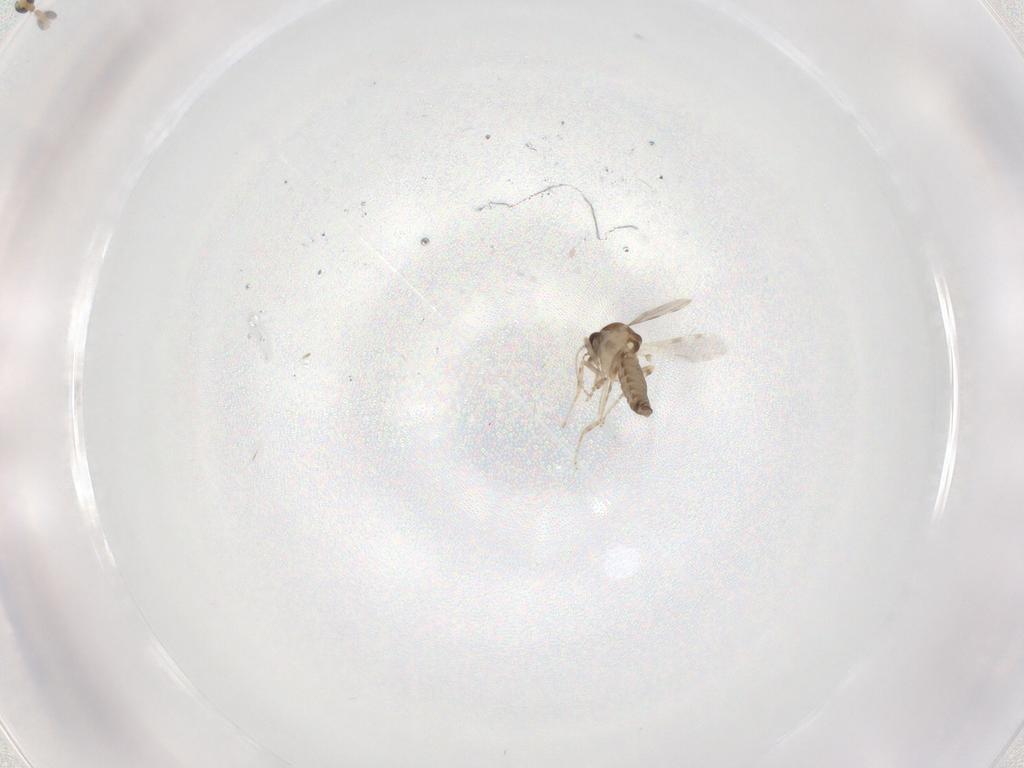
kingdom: Animalia
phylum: Arthropoda
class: Insecta
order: Diptera
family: Ceratopogonidae
